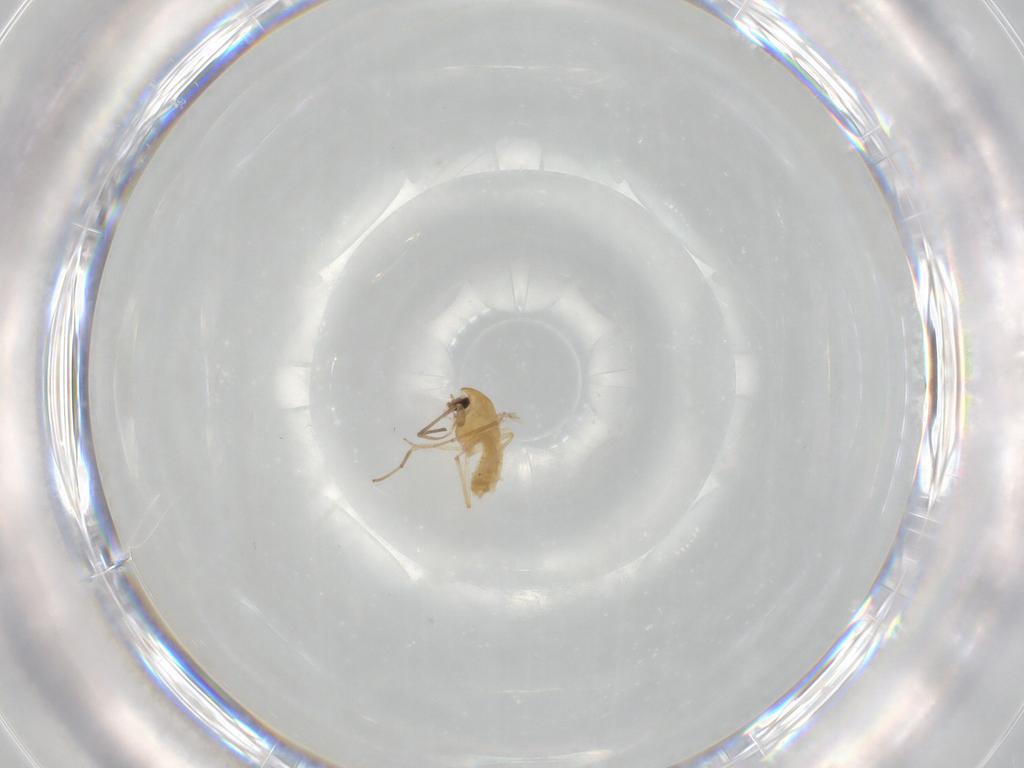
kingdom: Animalia
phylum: Arthropoda
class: Insecta
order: Diptera
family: Chironomidae
